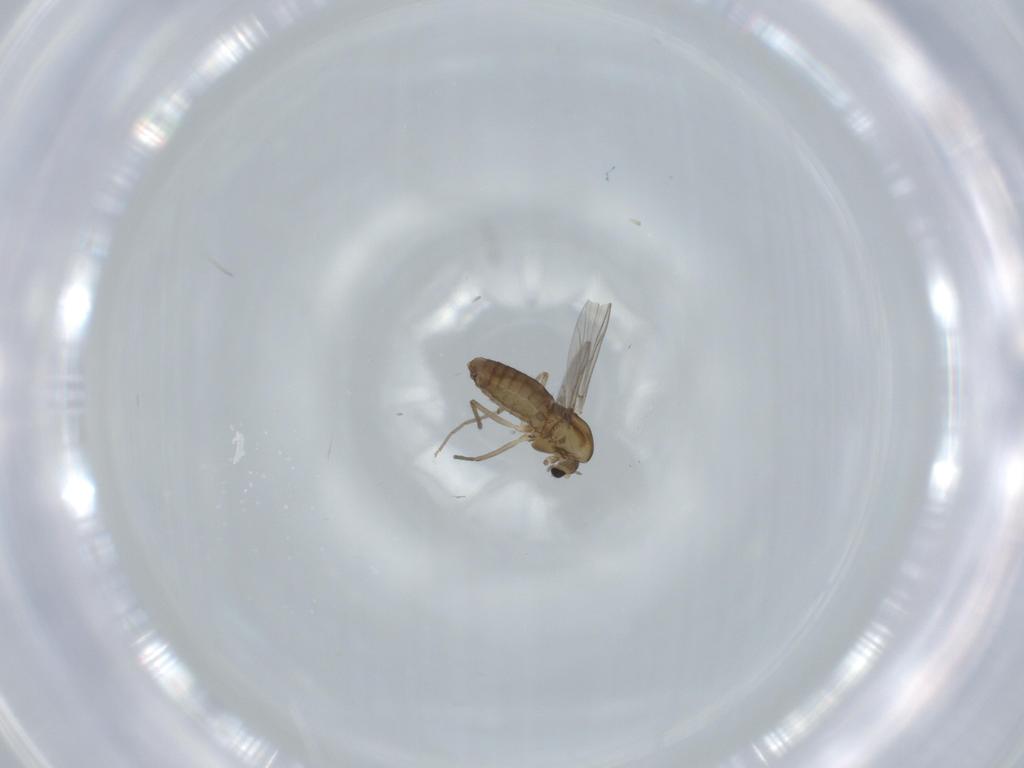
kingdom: Animalia
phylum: Arthropoda
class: Insecta
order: Diptera
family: Chironomidae
